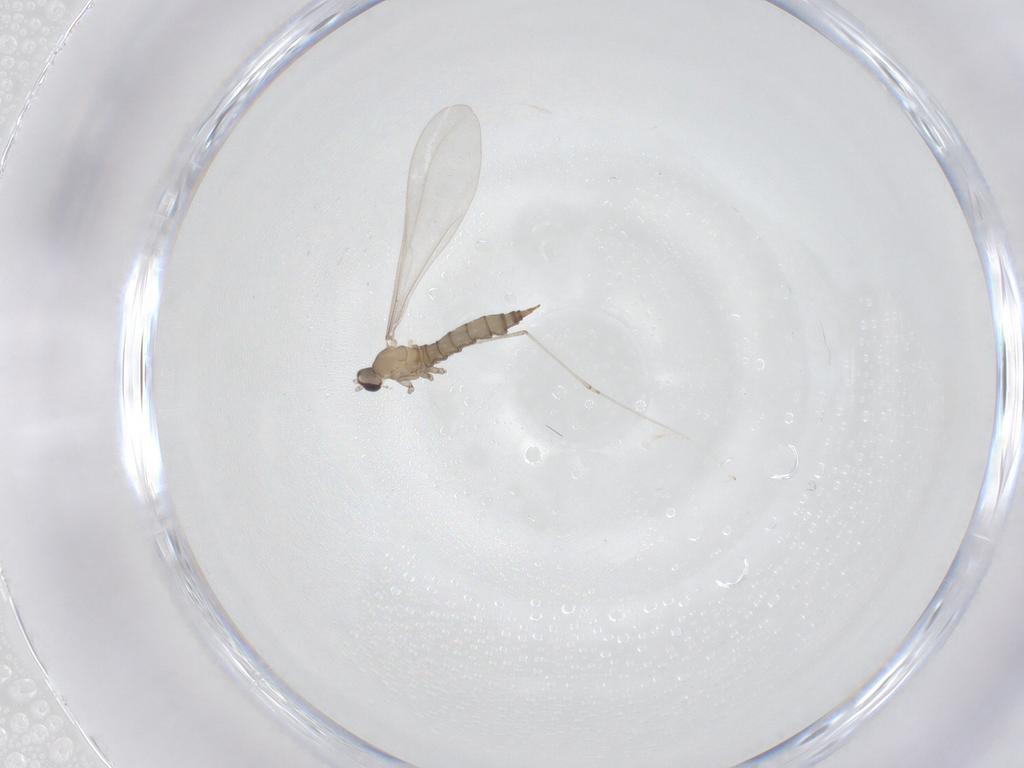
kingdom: Animalia
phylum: Arthropoda
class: Insecta
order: Diptera
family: Cecidomyiidae
